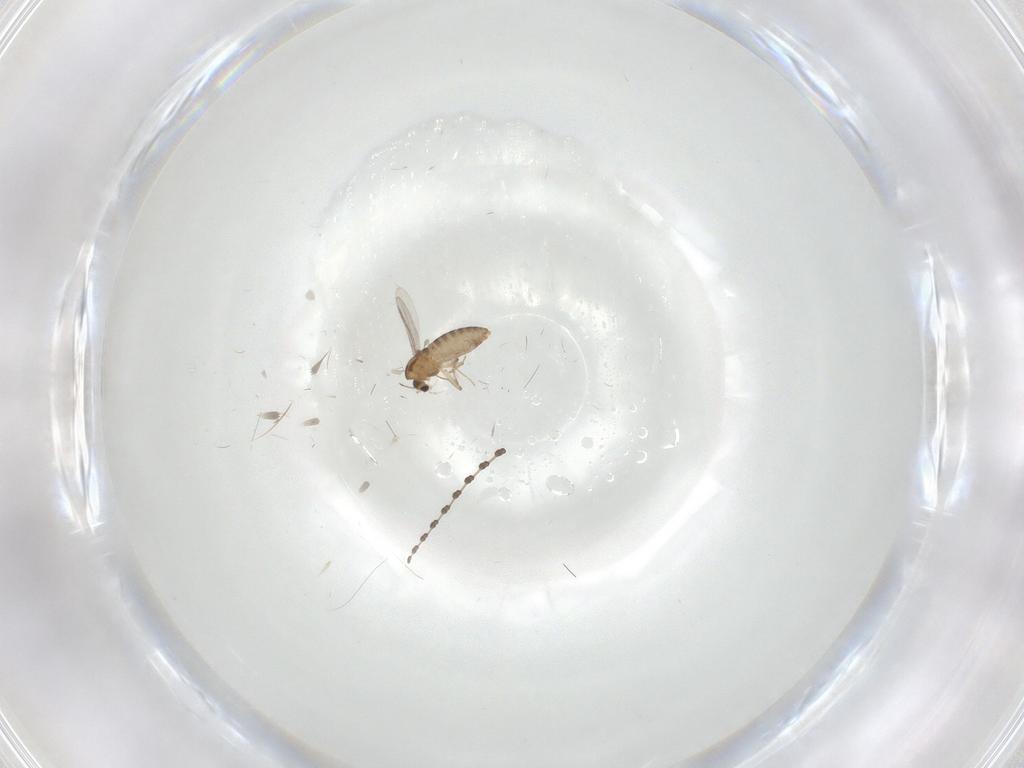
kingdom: Animalia
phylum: Arthropoda
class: Insecta
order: Diptera
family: Chironomidae
